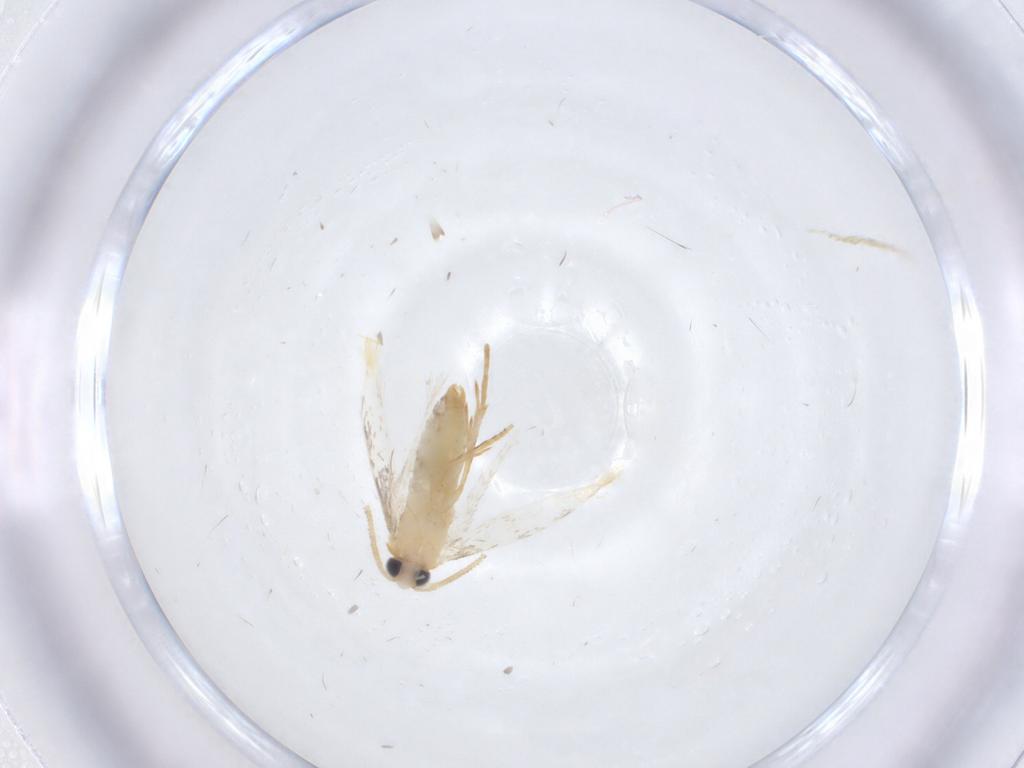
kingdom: Animalia
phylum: Arthropoda
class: Insecta
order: Lepidoptera
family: Nepticulidae
